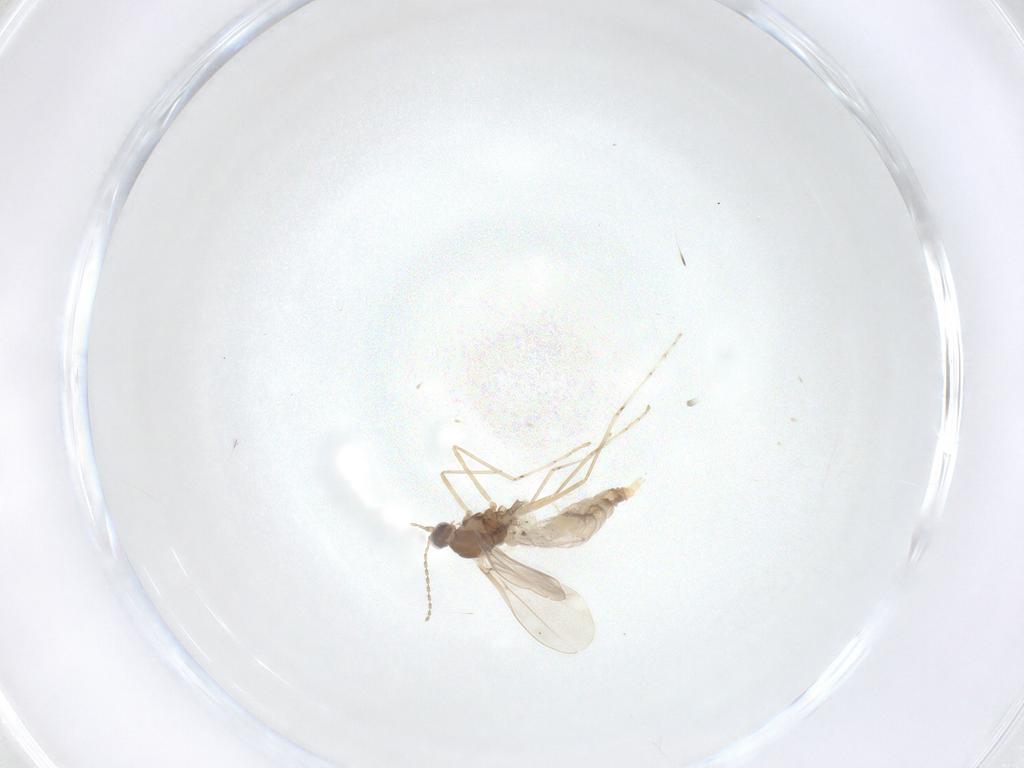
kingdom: Animalia
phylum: Arthropoda
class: Insecta
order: Diptera
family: Cecidomyiidae
